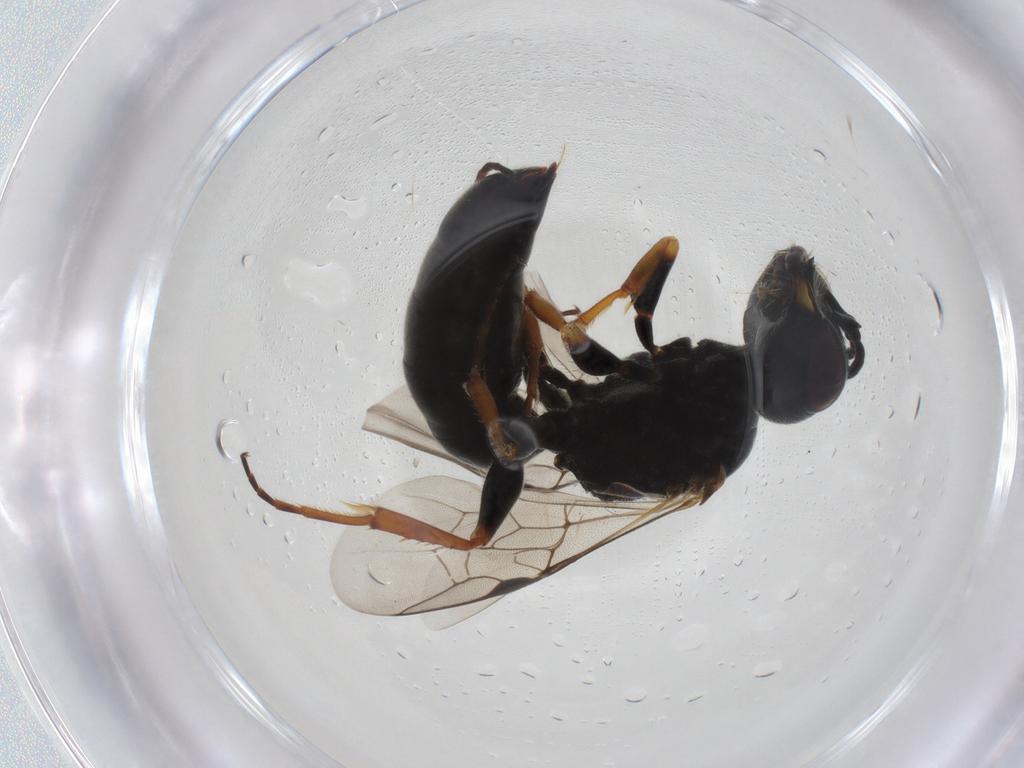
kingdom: Animalia
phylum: Arthropoda
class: Insecta
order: Hymenoptera
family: Pemphredonidae
